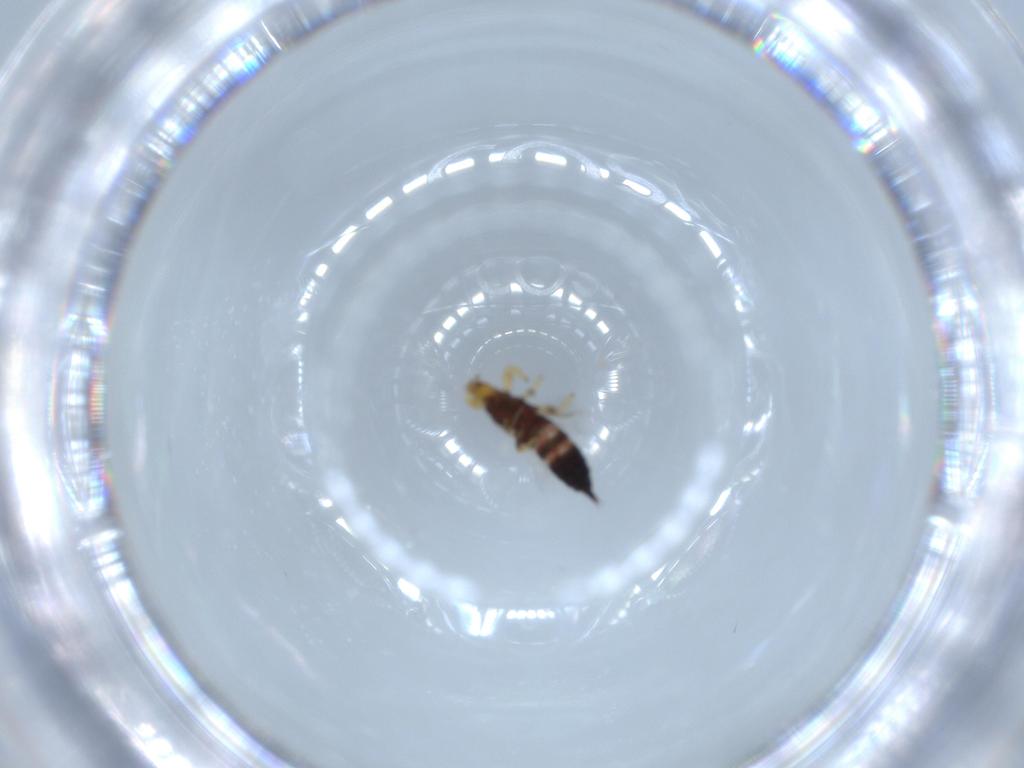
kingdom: Animalia
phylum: Arthropoda
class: Insecta
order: Thysanoptera
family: Phlaeothripidae
